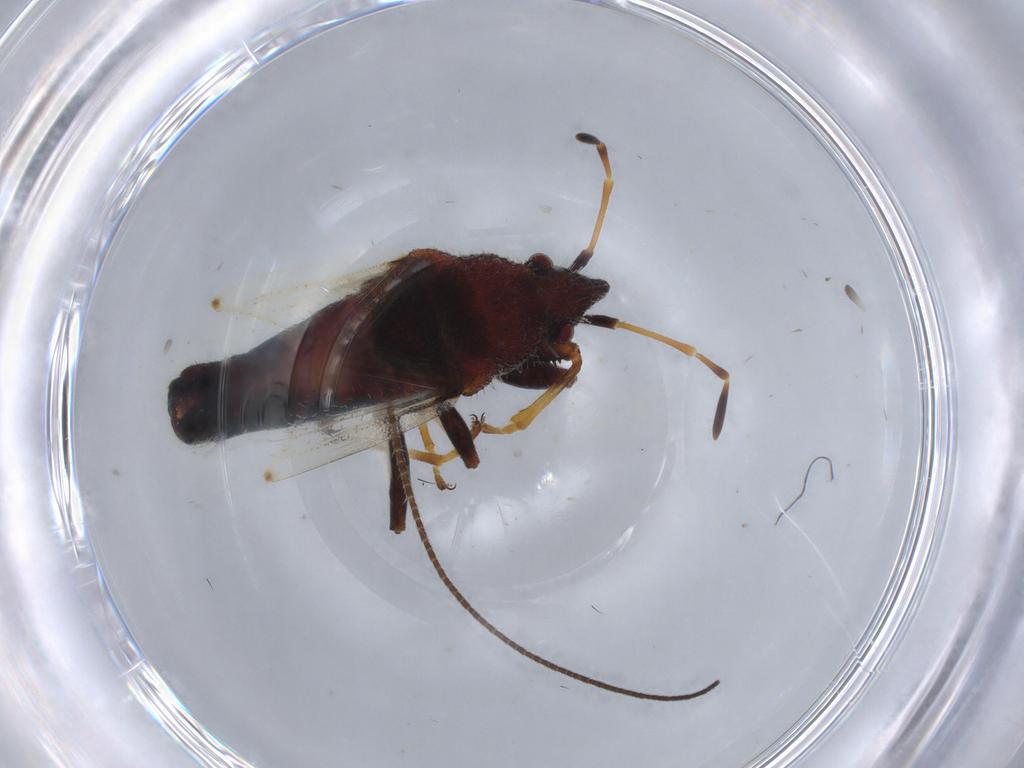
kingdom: Animalia
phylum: Arthropoda
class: Insecta
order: Hemiptera
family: Oxycarenidae
